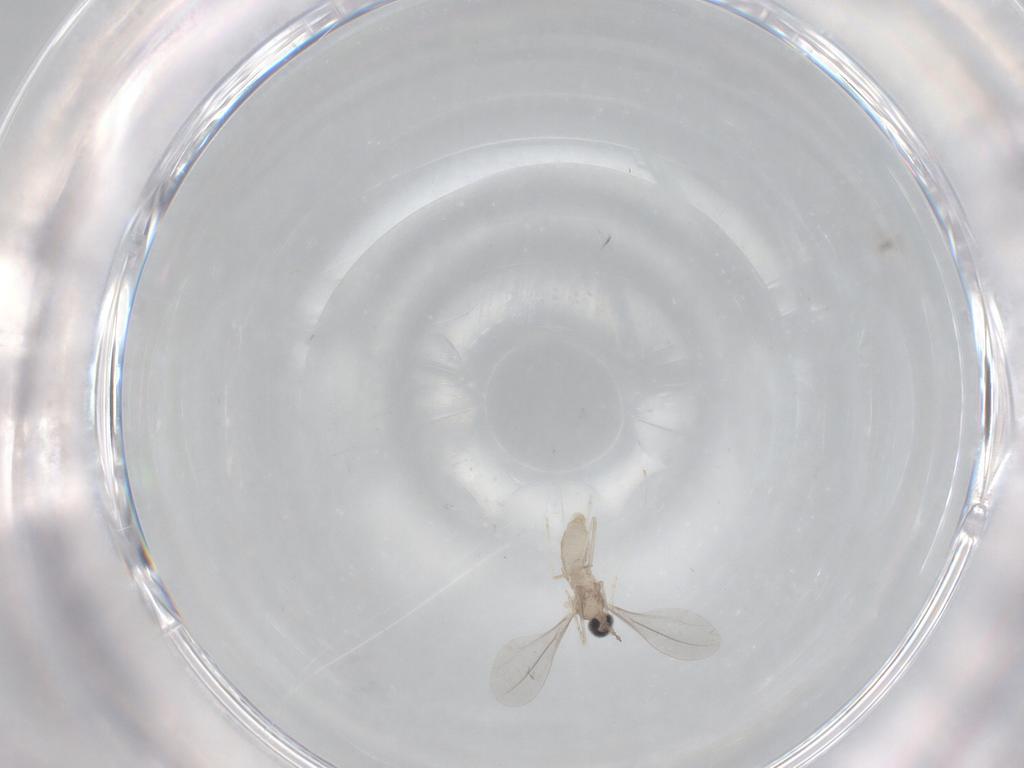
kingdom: Animalia
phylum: Arthropoda
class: Insecta
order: Diptera
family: Cecidomyiidae
